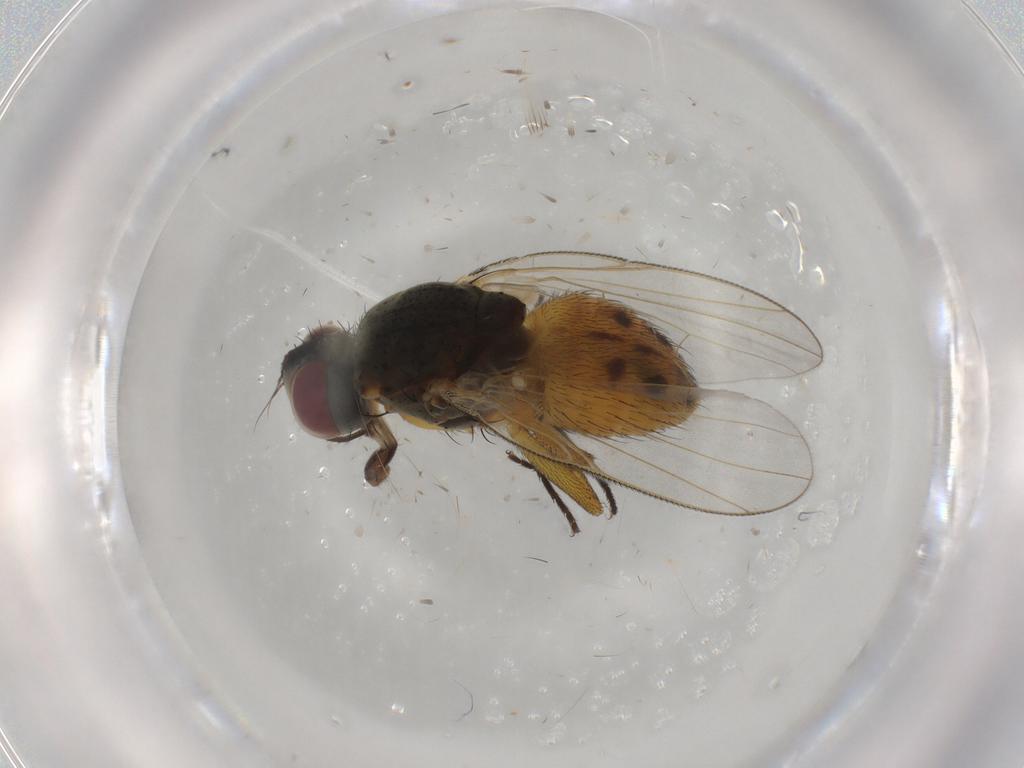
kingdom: Animalia
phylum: Arthropoda
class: Insecta
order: Diptera
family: Muscidae
